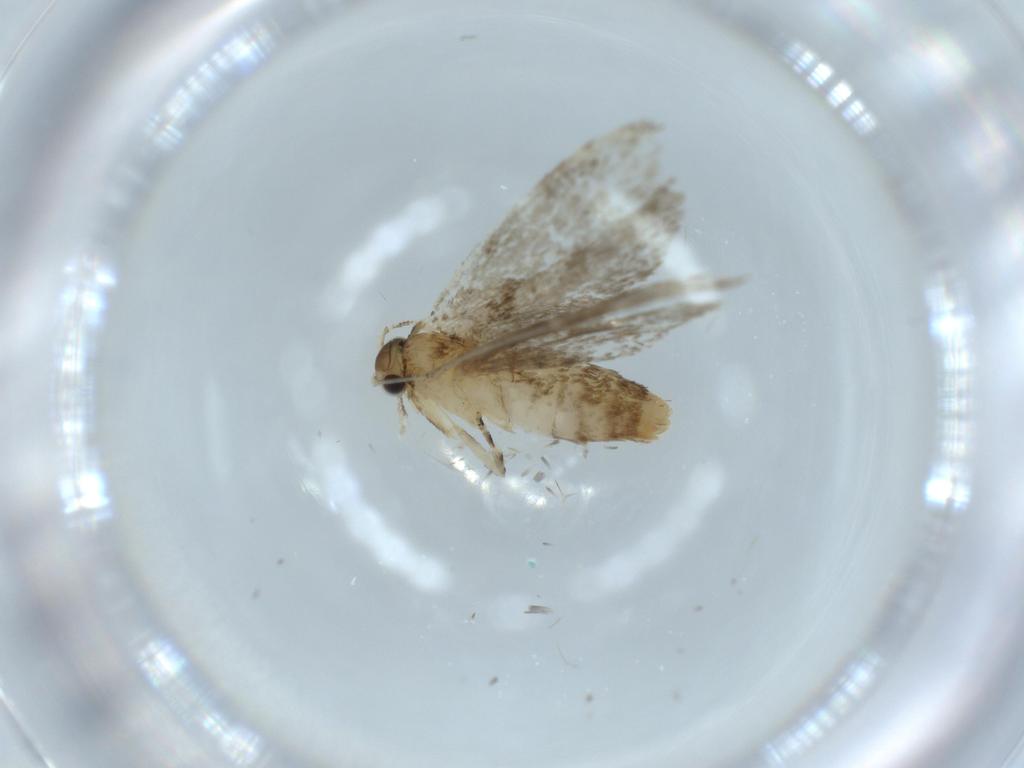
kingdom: Animalia
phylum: Arthropoda
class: Insecta
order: Lepidoptera
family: Tineidae
